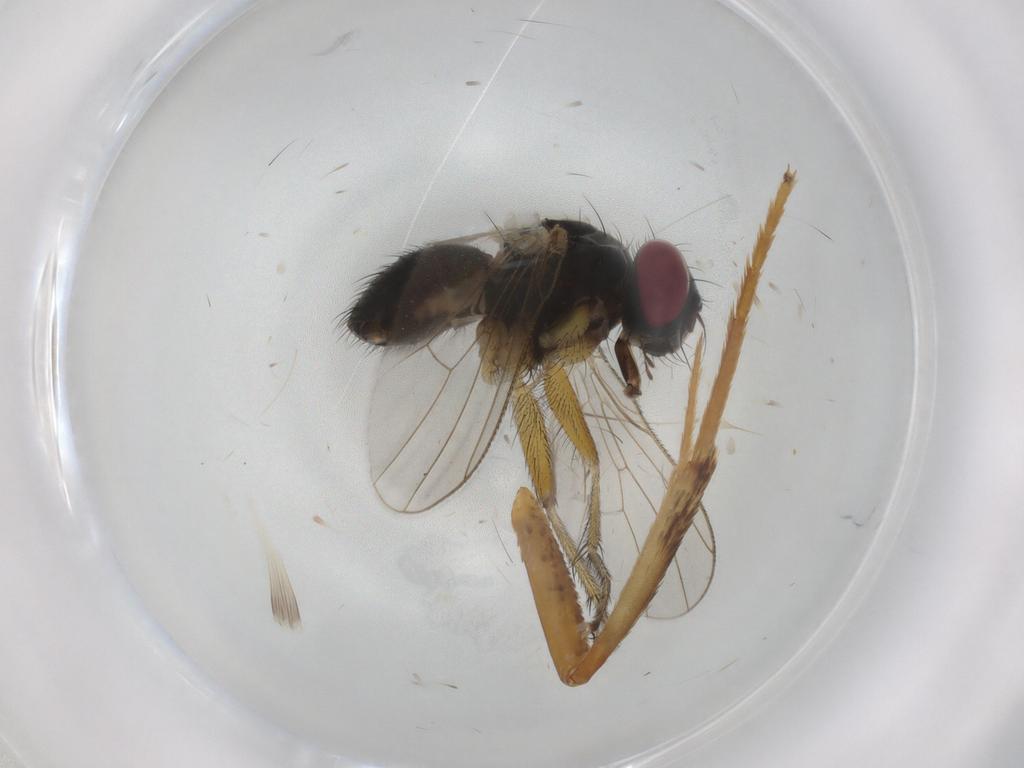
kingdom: Animalia
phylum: Arthropoda
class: Insecta
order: Diptera
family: Muscidae
